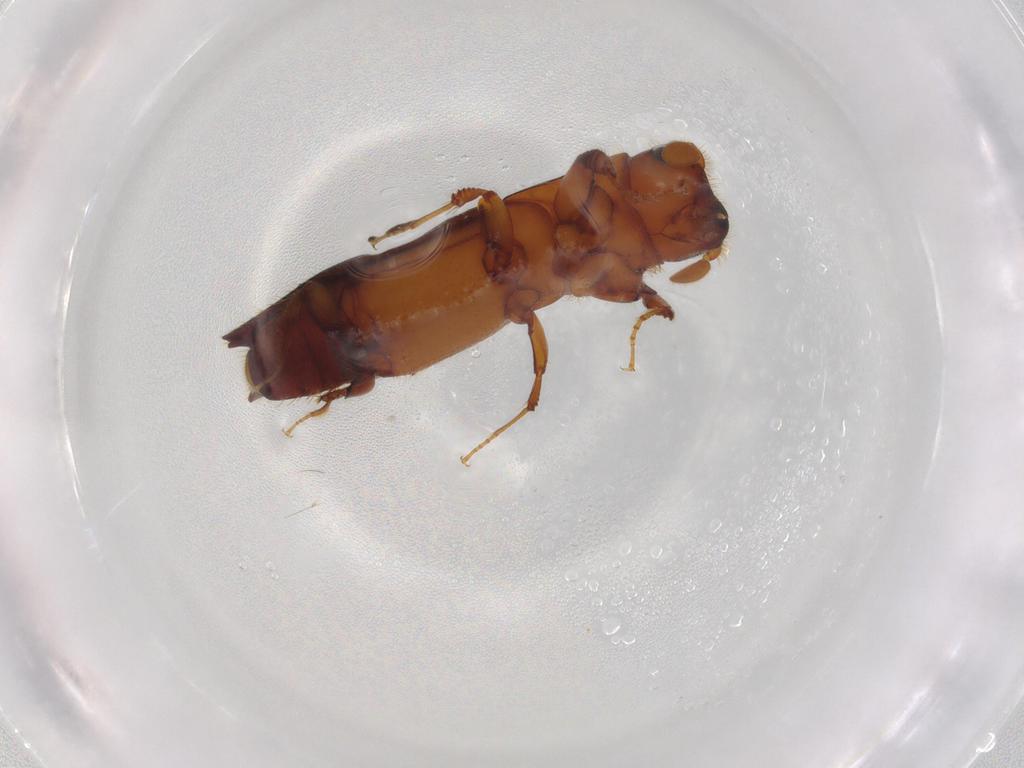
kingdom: Animalia
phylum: Arthropoda
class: Insecta
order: Coleoptera
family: Curculionidae
